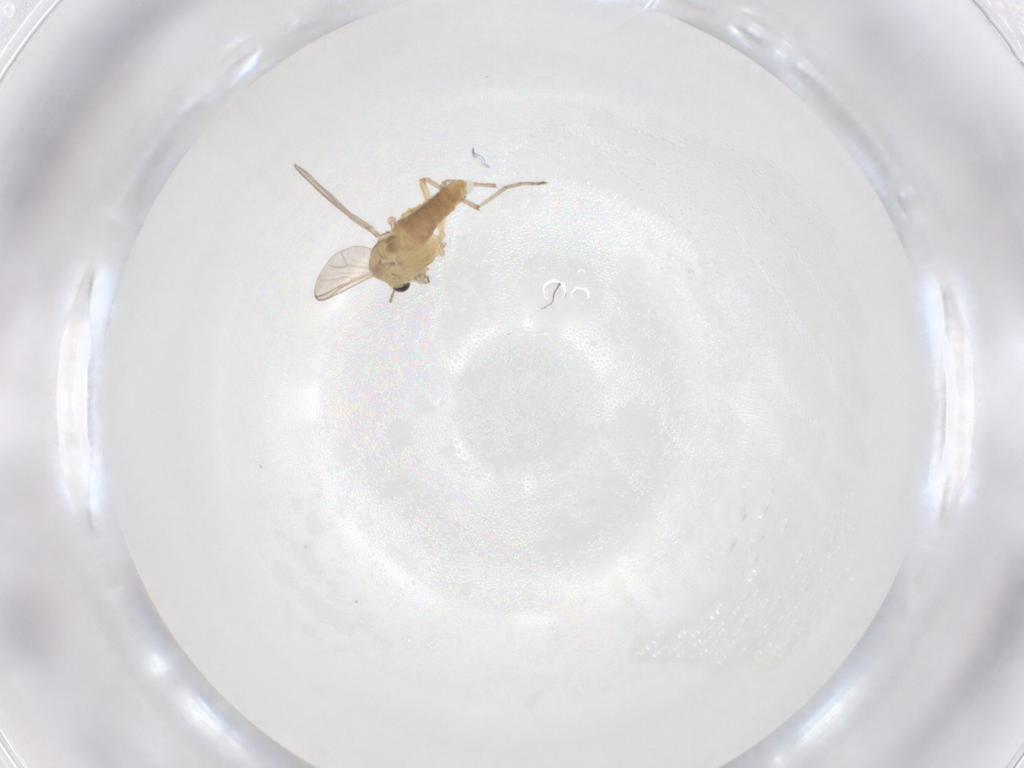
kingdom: Animalia
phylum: Arthropoda
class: Insecta
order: Diptera
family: Chironomidae
